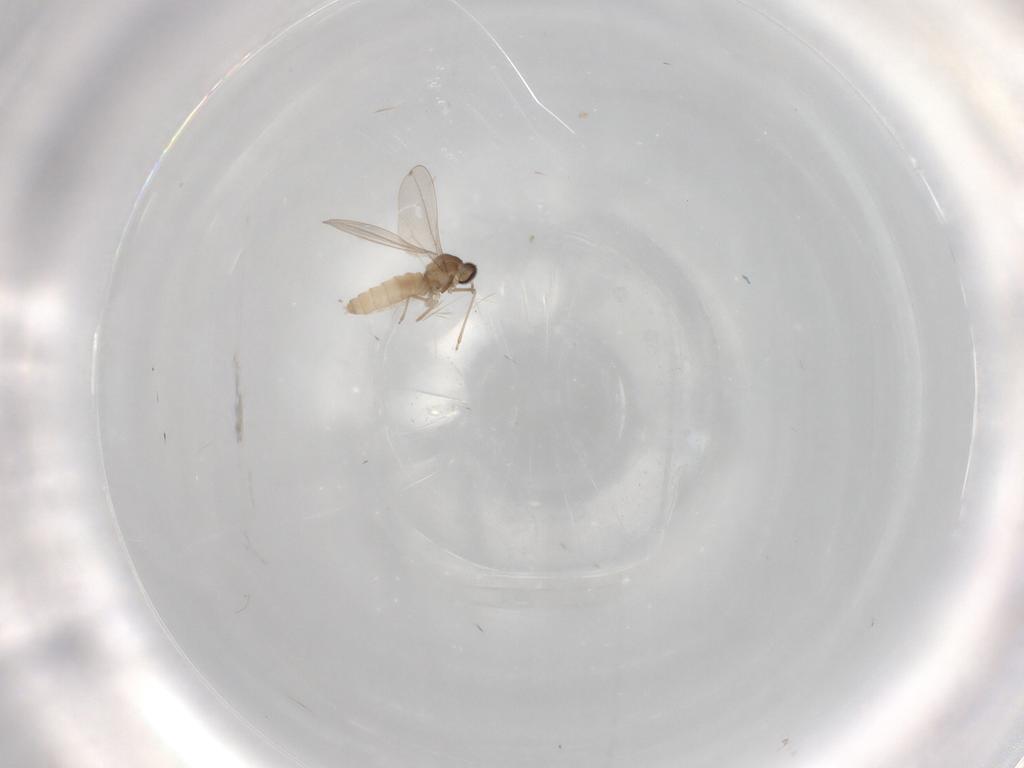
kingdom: Animalia
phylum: Arthropoda
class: Insecta
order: Diptera
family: Cecidomyiidae
